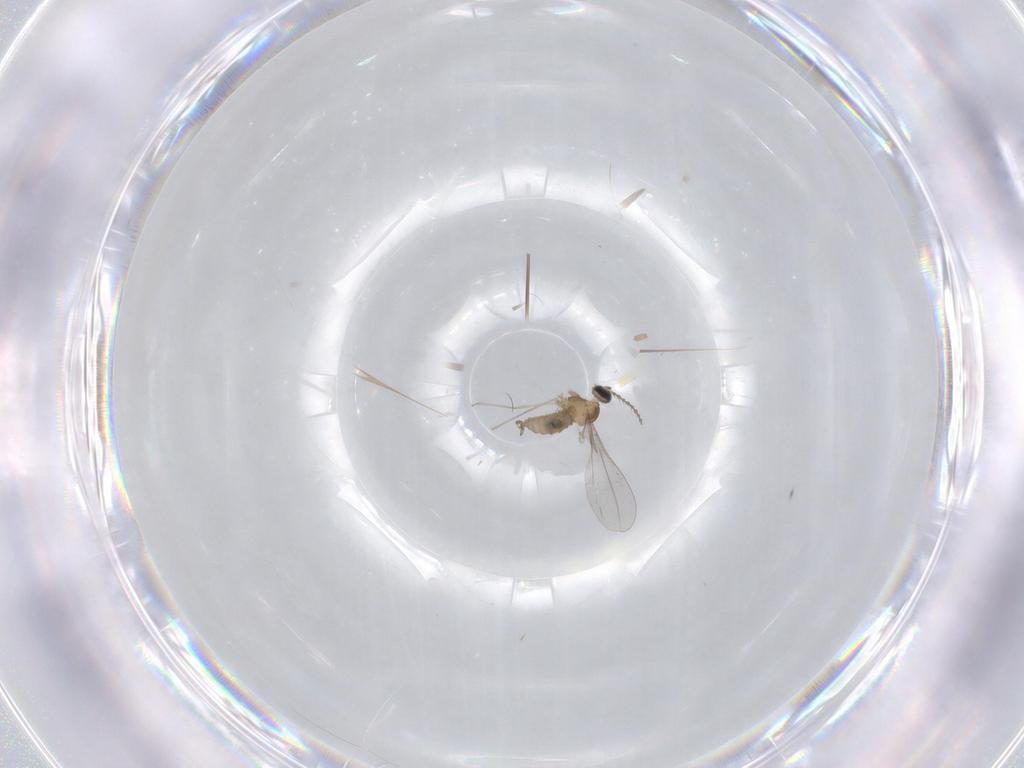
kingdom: Animalia
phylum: Arthropoda
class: Insecta
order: Diptera
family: Cecidomyiidae
